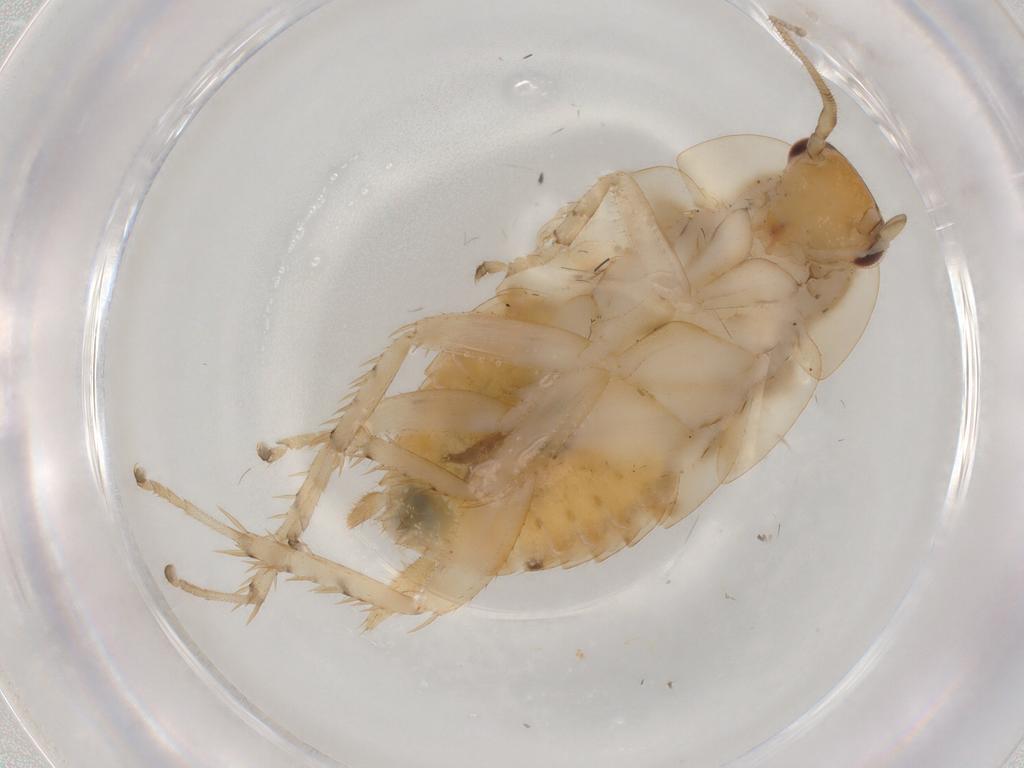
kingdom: Animalia
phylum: Arthropoda
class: Insecta
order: Blattodea
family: Ectobiidae
